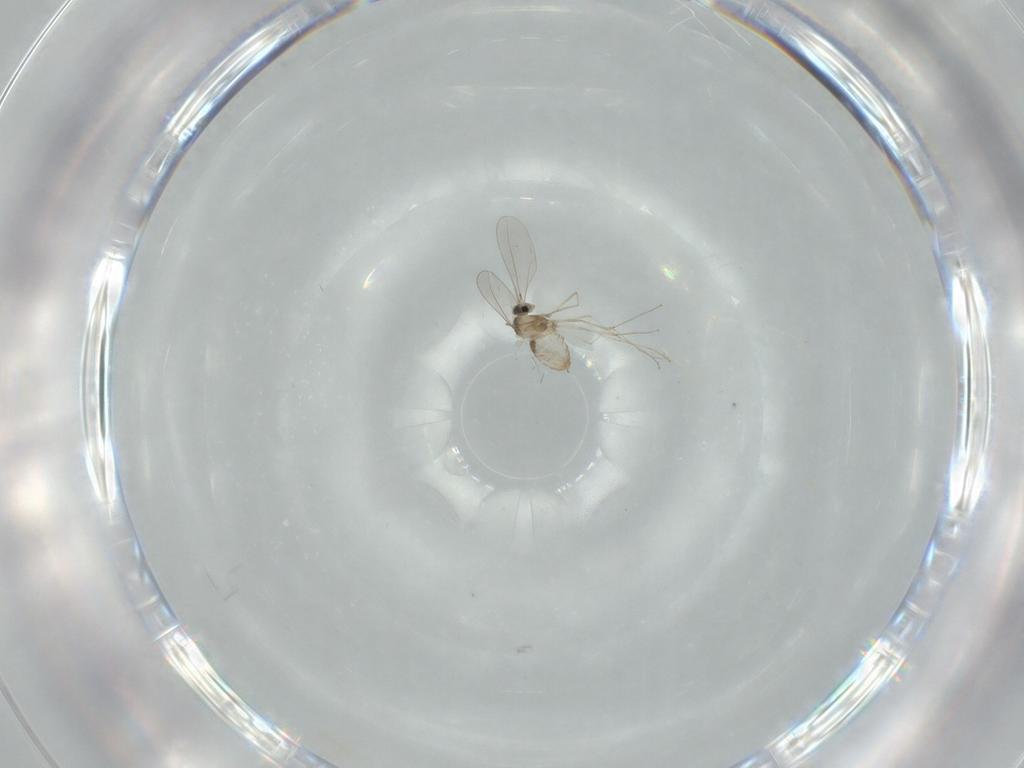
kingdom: Animalia
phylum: Arthropoda
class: Insecta
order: Diptera
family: Cecidomyiidae
